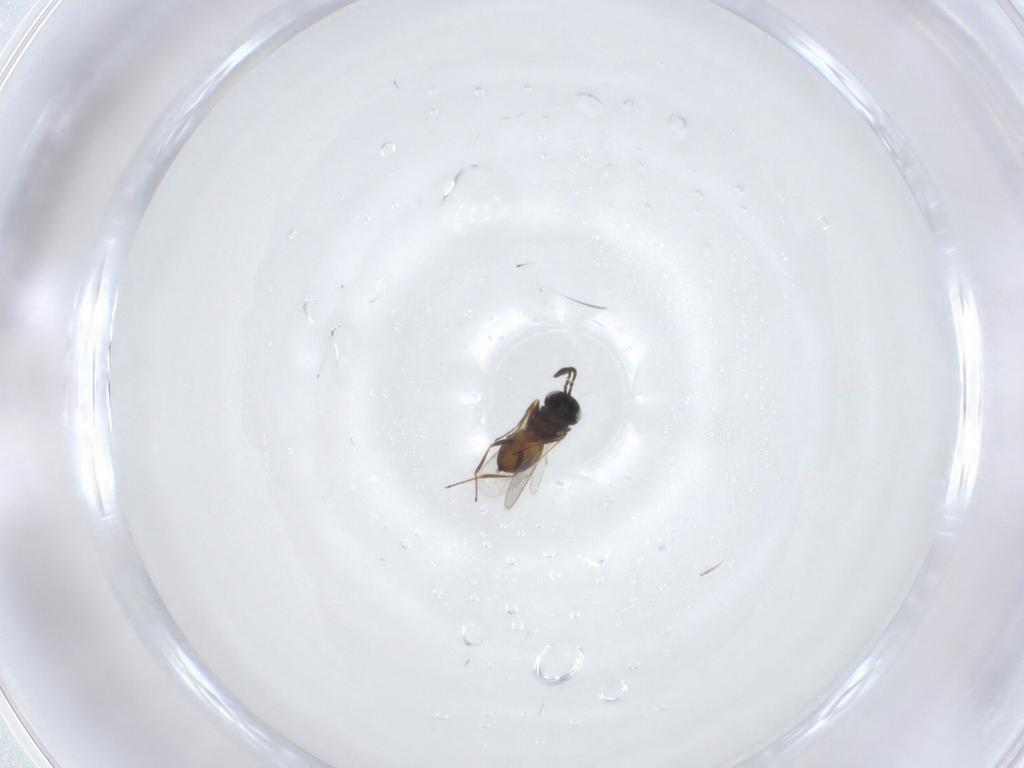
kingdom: Animalia
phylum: Arthropoda
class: Insecta
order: Hymenoptera
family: Scelionidae
